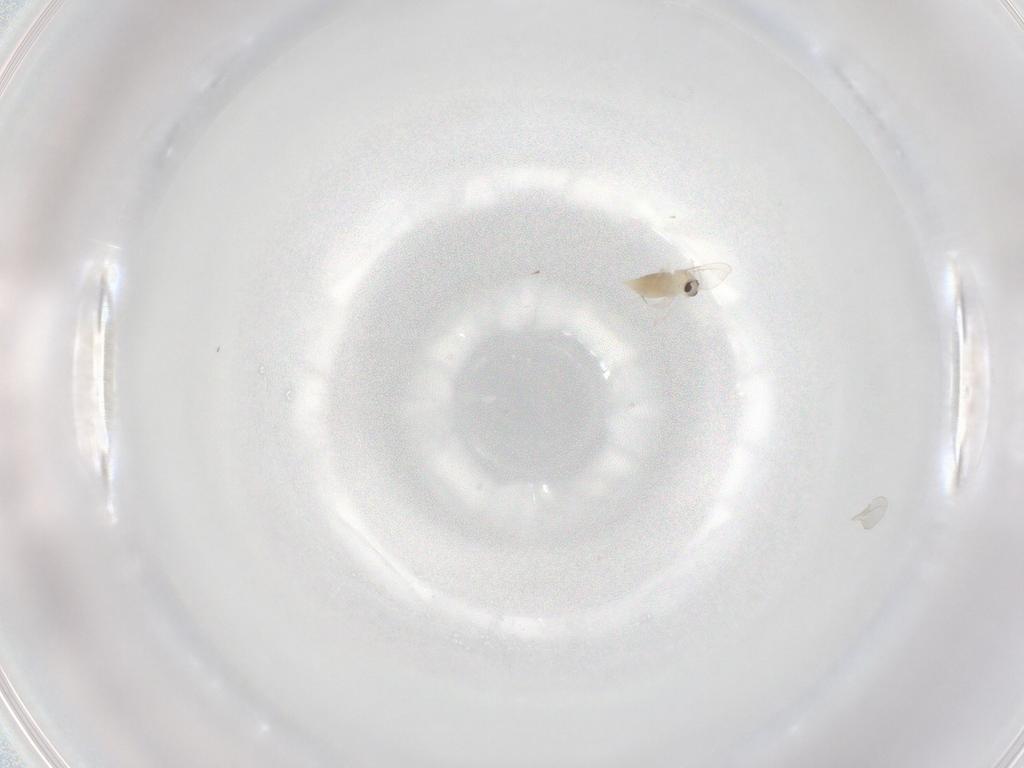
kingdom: Animalia
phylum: Arthropoda
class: Insecta
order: Diptera
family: Cecidomyiidae
